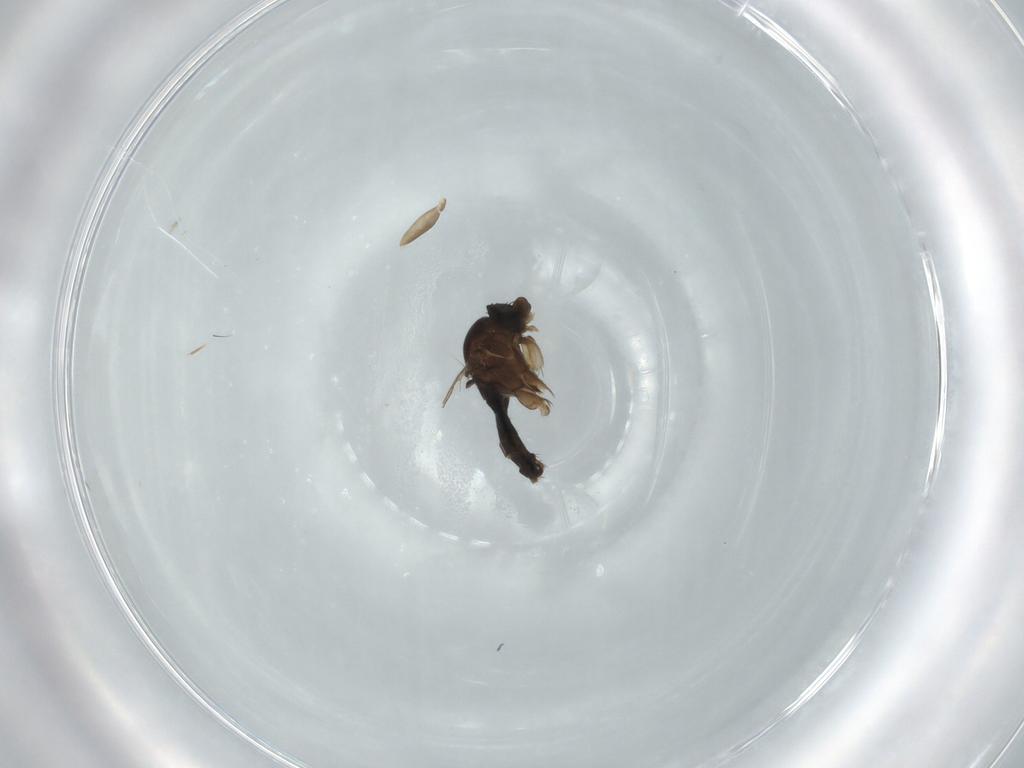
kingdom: Animalia
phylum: Arthropoda
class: Insecta
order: Diptera
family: Phoridae
